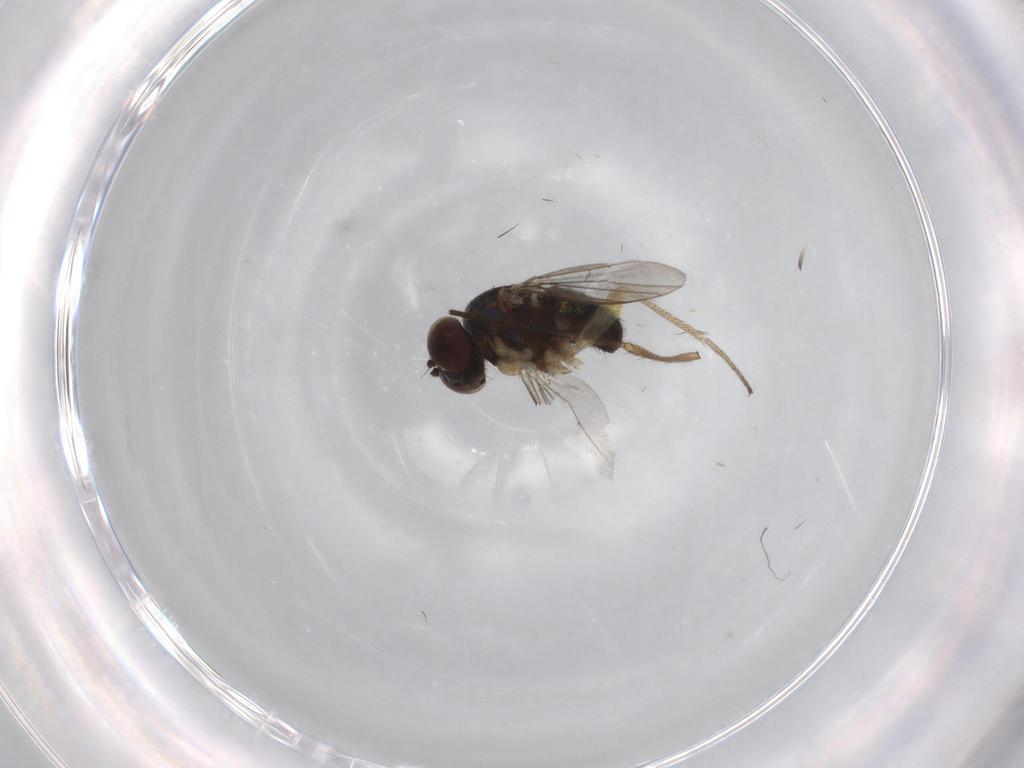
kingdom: Animalia
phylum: Arthropoda
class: Insecta
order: Diptera
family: Sciaridae
